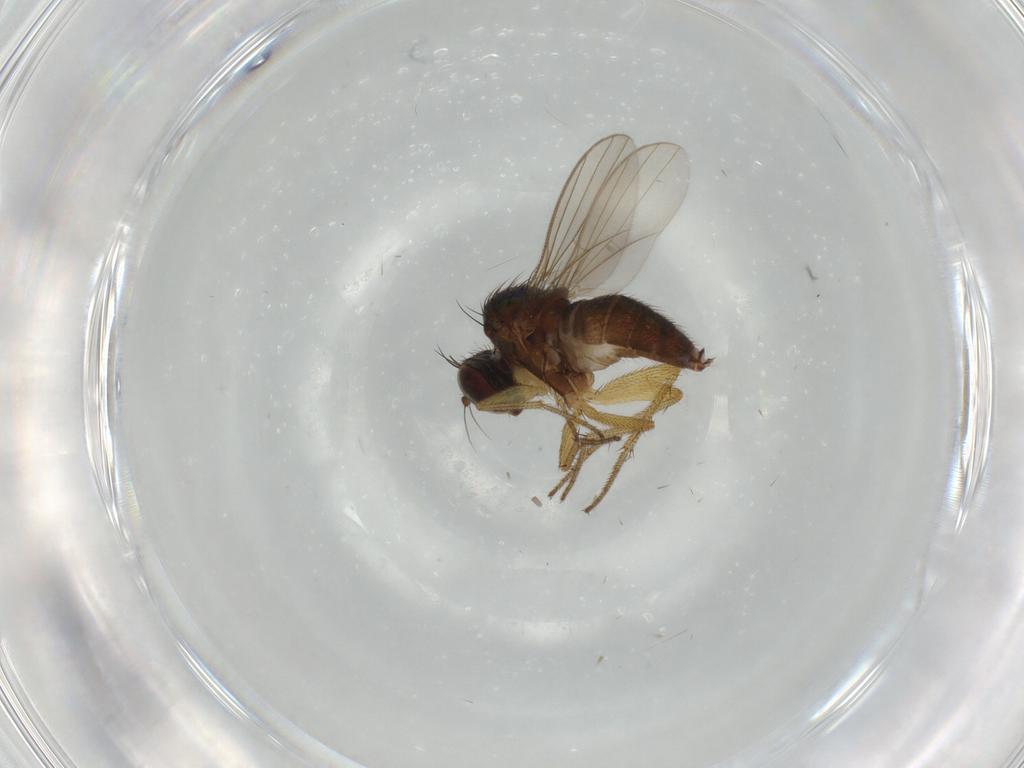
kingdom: Animalia
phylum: Arthropoda
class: Insecta
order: Diptera
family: Dolichopodidae
